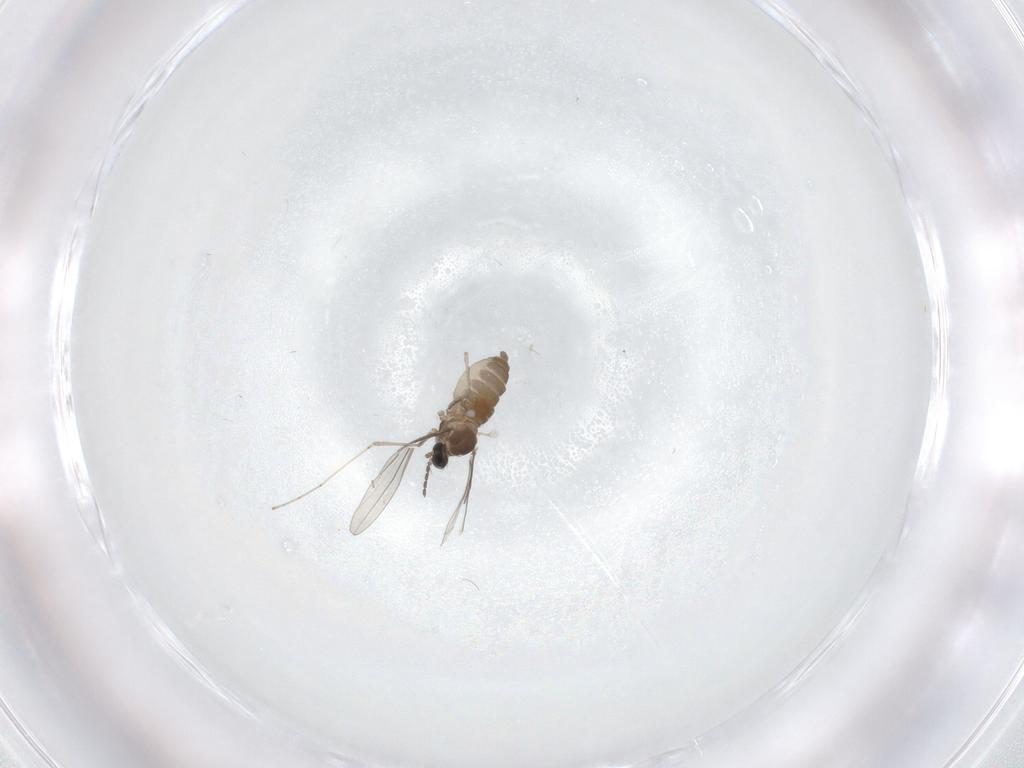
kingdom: Animalia
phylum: Arthropoda
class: Insecta
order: Diptera
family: Cecidomyiidae
